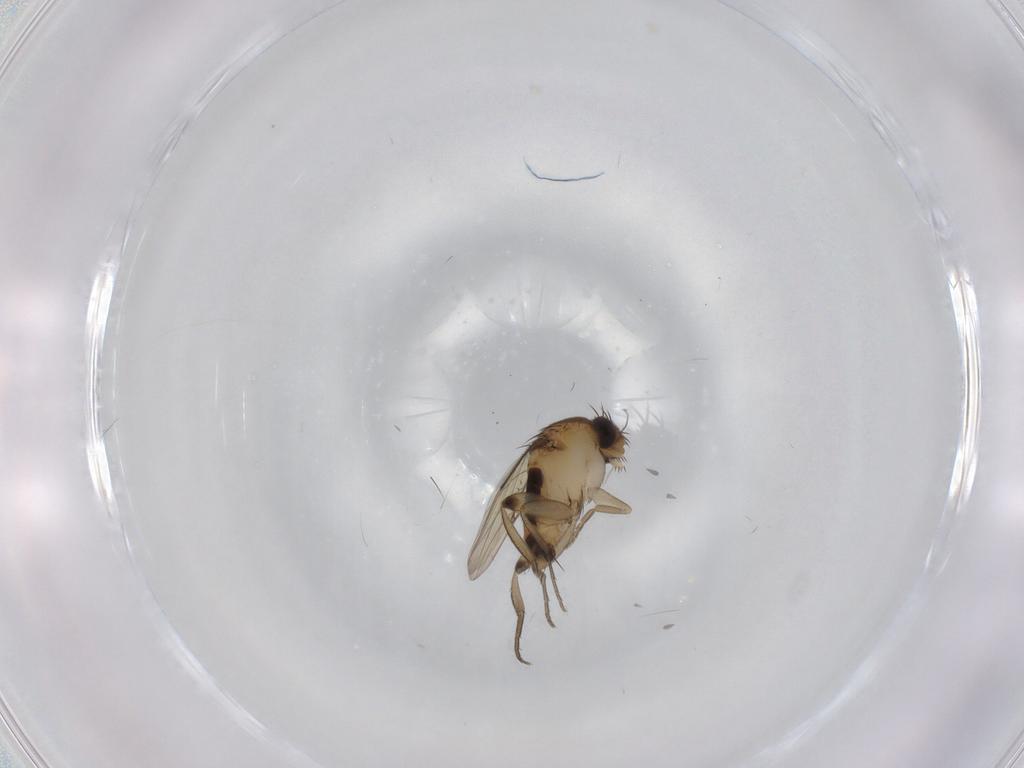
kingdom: Animalia
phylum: Arthropoda
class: Insecta
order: Diptera
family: Phoridae
